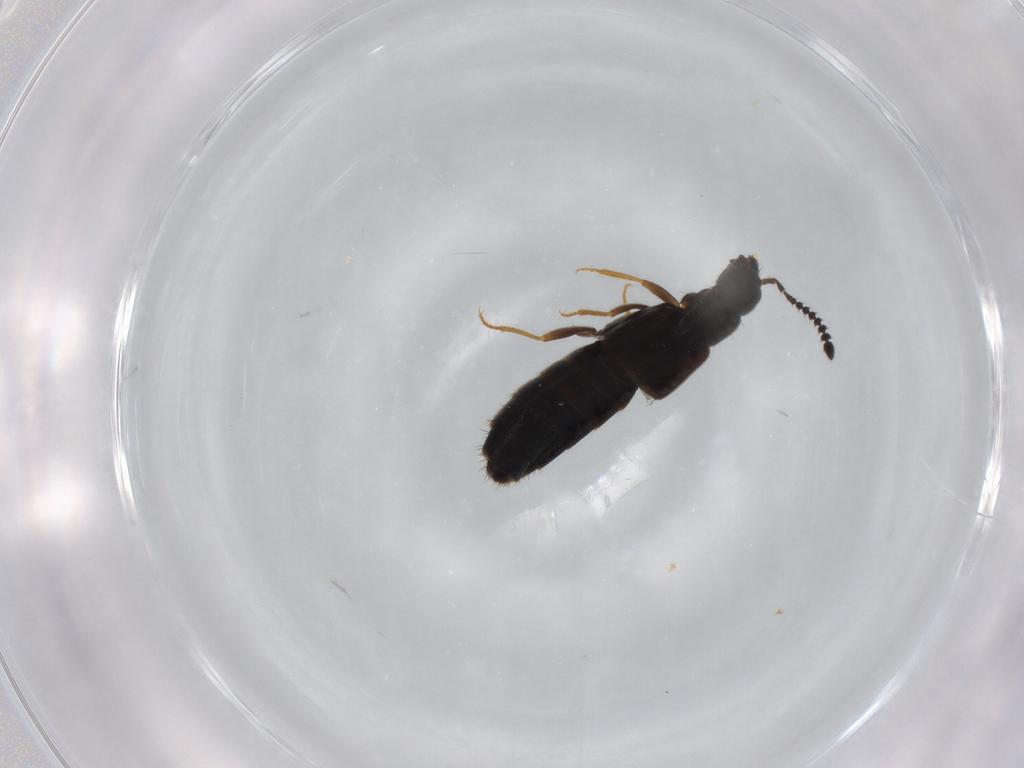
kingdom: Animalia
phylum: Arthropoda
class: Insecta
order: Coleoptera
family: Staphylinidae
